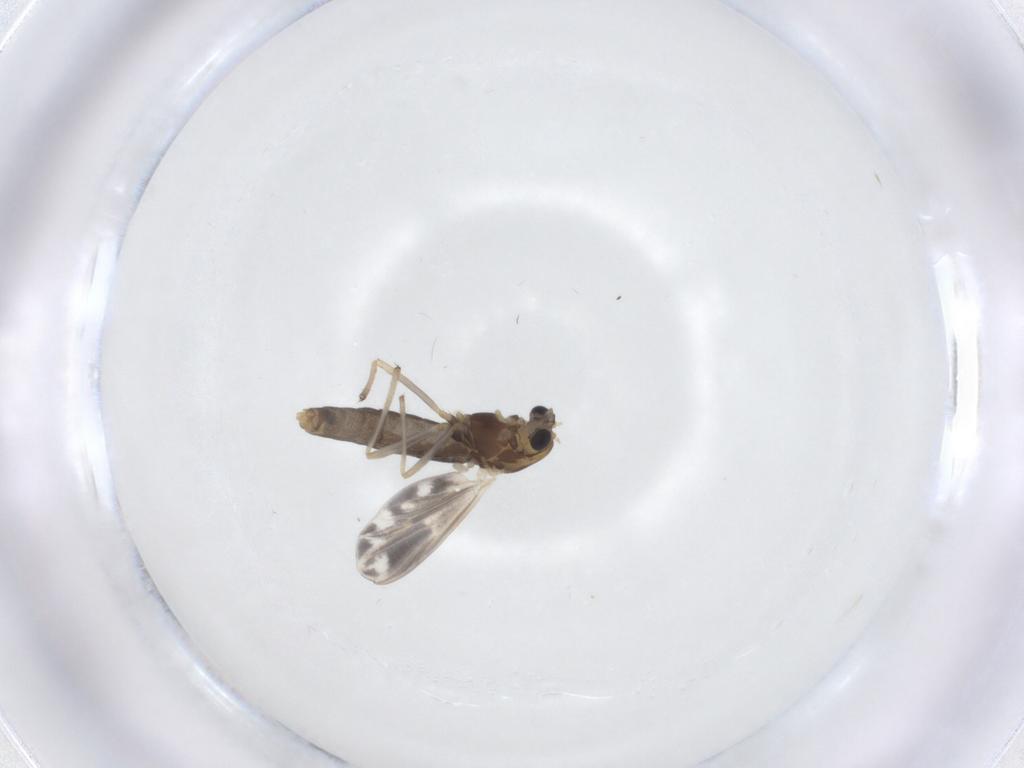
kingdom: Animalia
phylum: Arthropoda
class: Insecta
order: Diptera
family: Chironomidae
